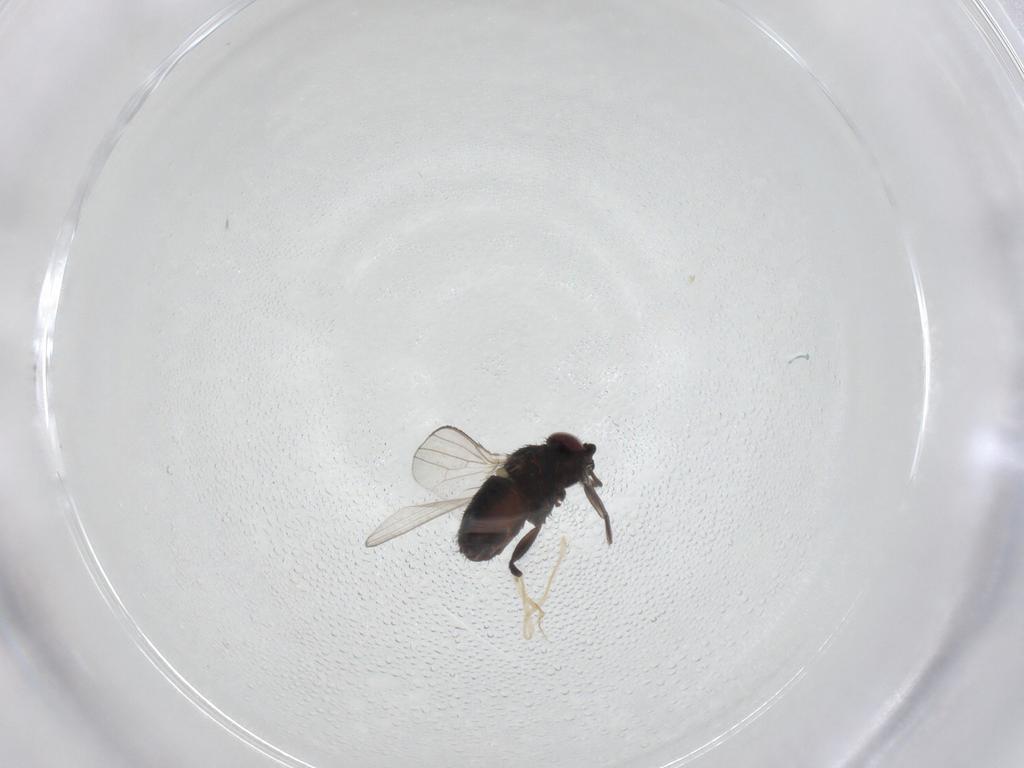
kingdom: Animalia
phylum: Arthropoda
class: Insecta
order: Diptera
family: Milichiidae
